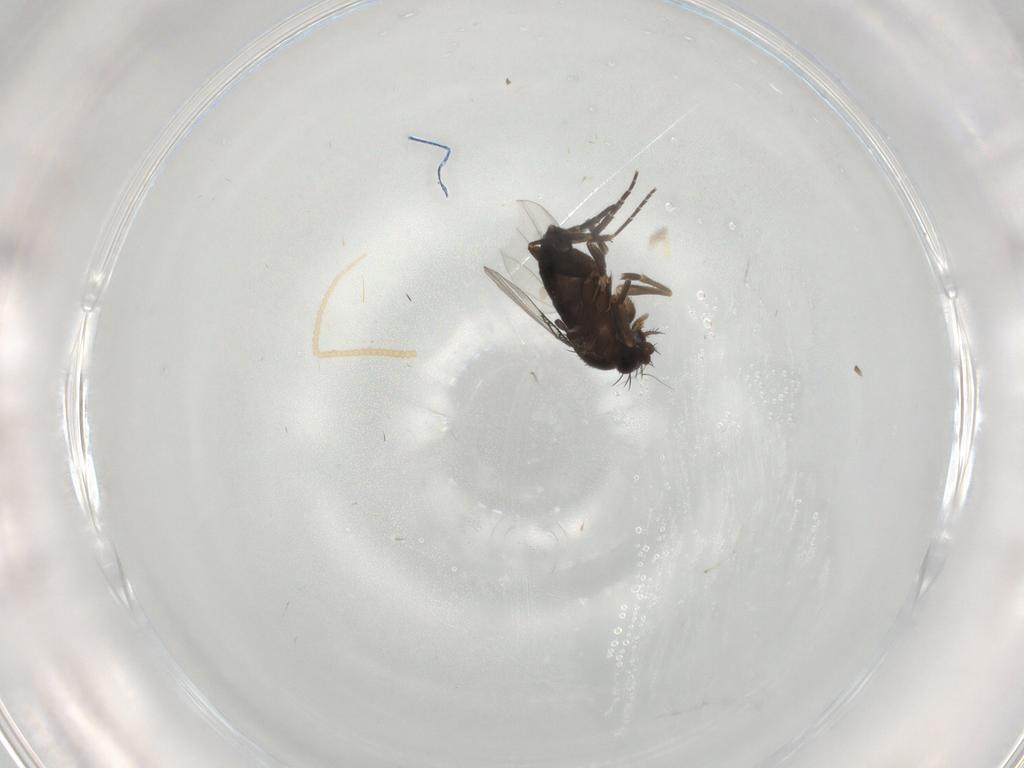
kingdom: Animalia
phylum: Arthropoda
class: Insecta
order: Diptera
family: Phoridae
